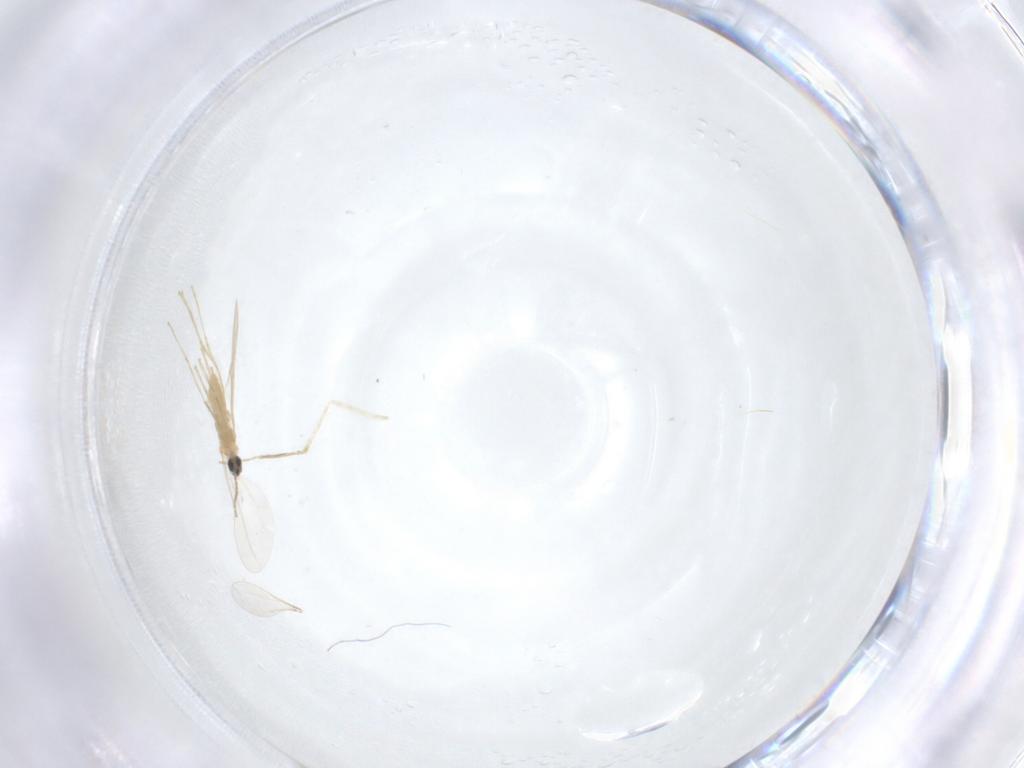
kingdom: Animalia
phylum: Arthropoda
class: Insecta
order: Diptera
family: Cecidomyiidae
